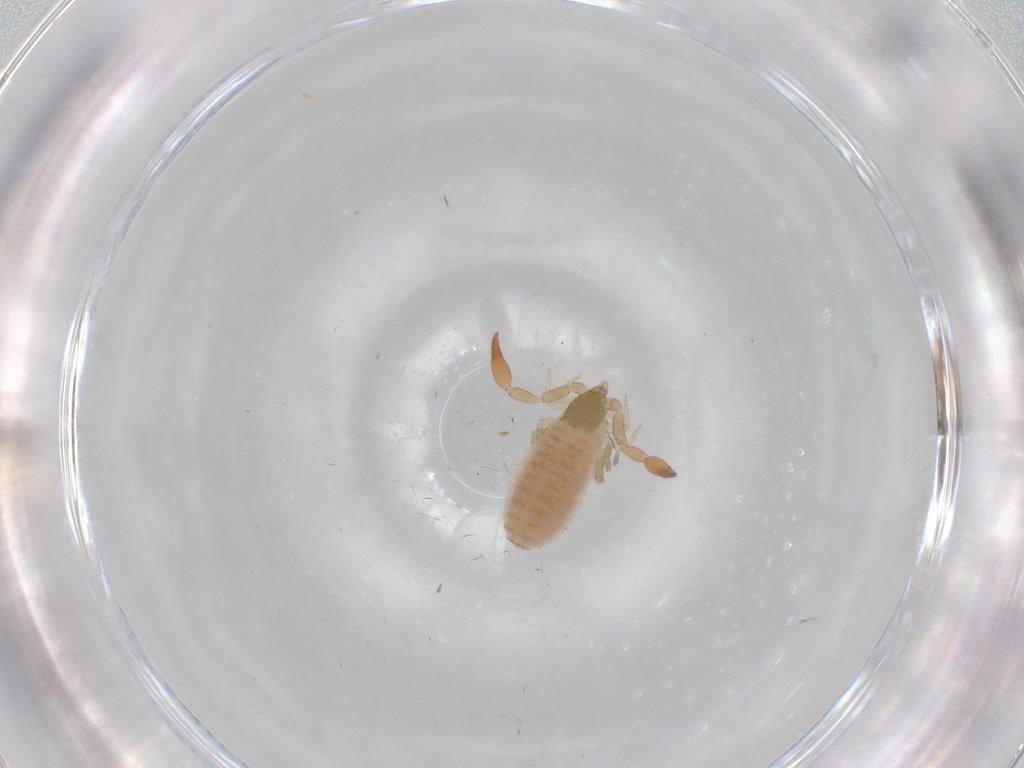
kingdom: Animalia
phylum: Arthropoda
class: Arachnida
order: Pseudoscorpiones
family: Withiidae
